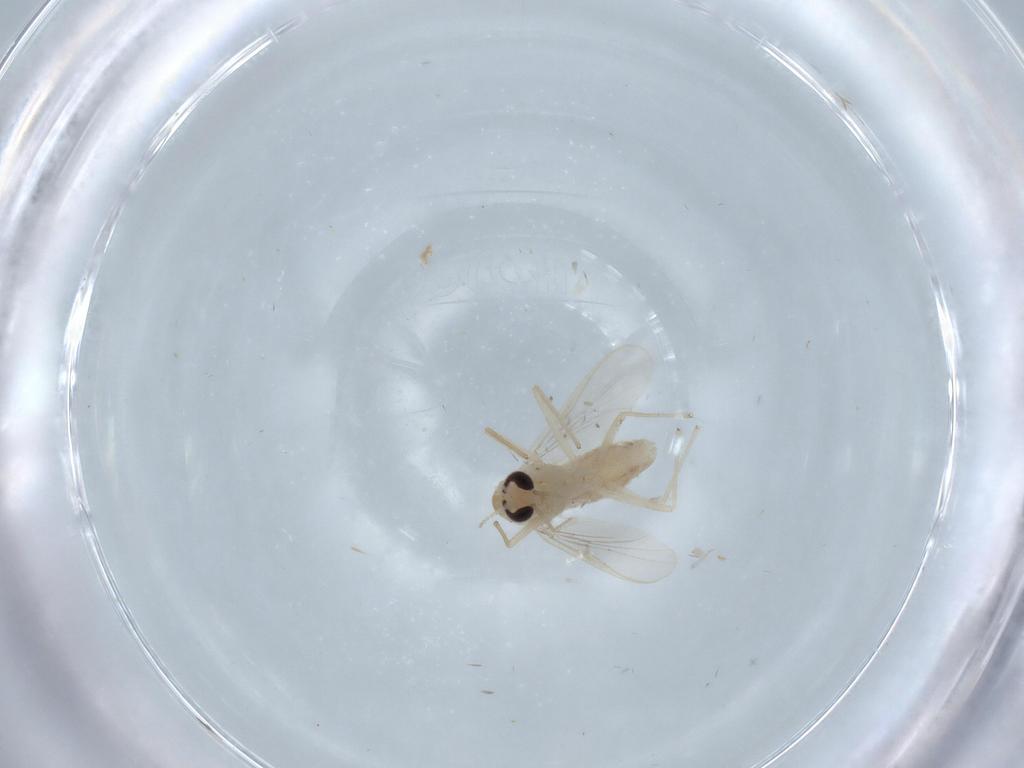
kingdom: Animalia
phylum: Arthropoda
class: Insecta
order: Diptera
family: Chironomidae
